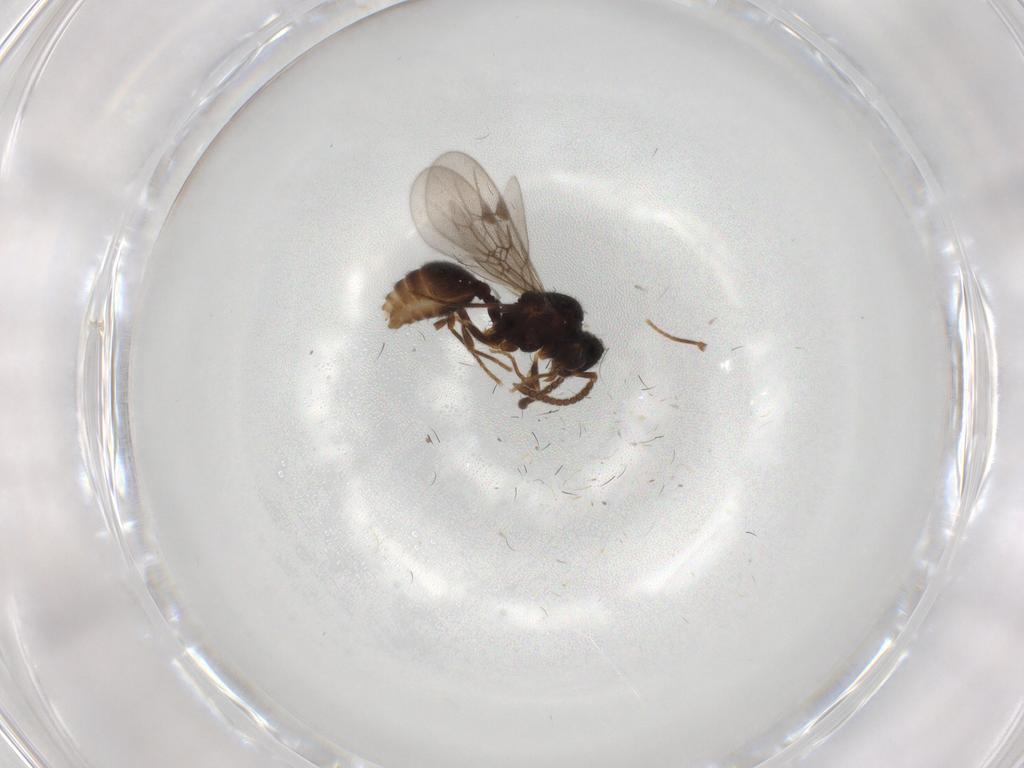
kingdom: Animalia
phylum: Arthropoda
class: Insecta
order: Hymenoptera
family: Formicidae
